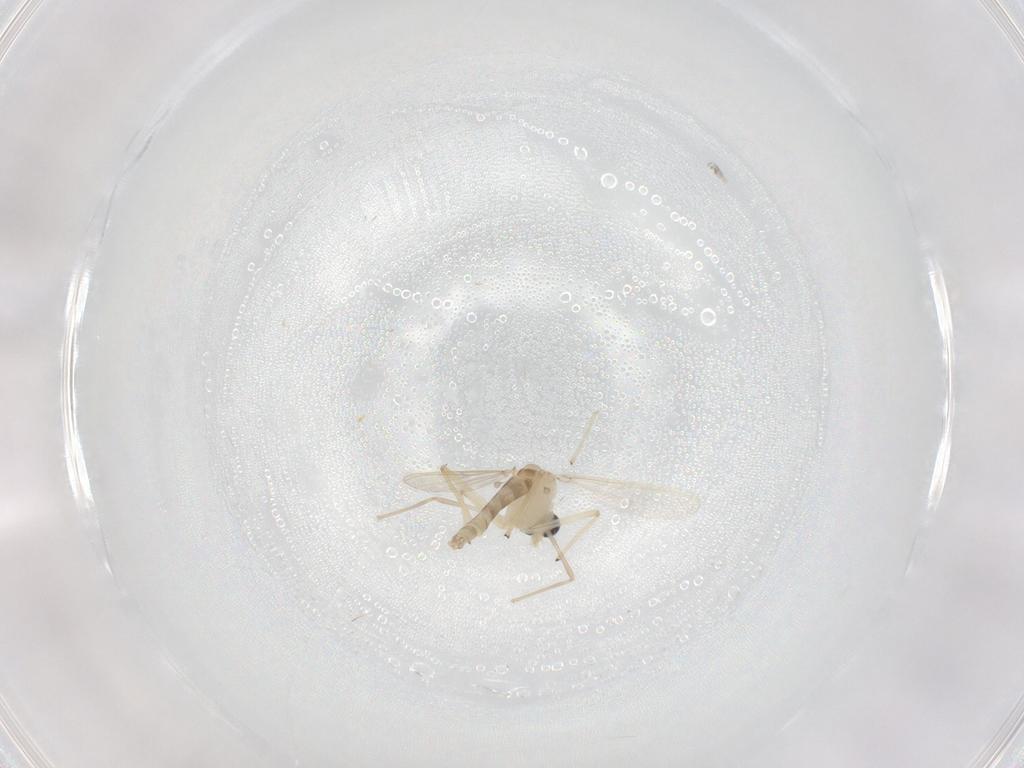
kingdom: Animalia
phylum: Arthropoda
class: Insecta
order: Diptera
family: Chironomidae
